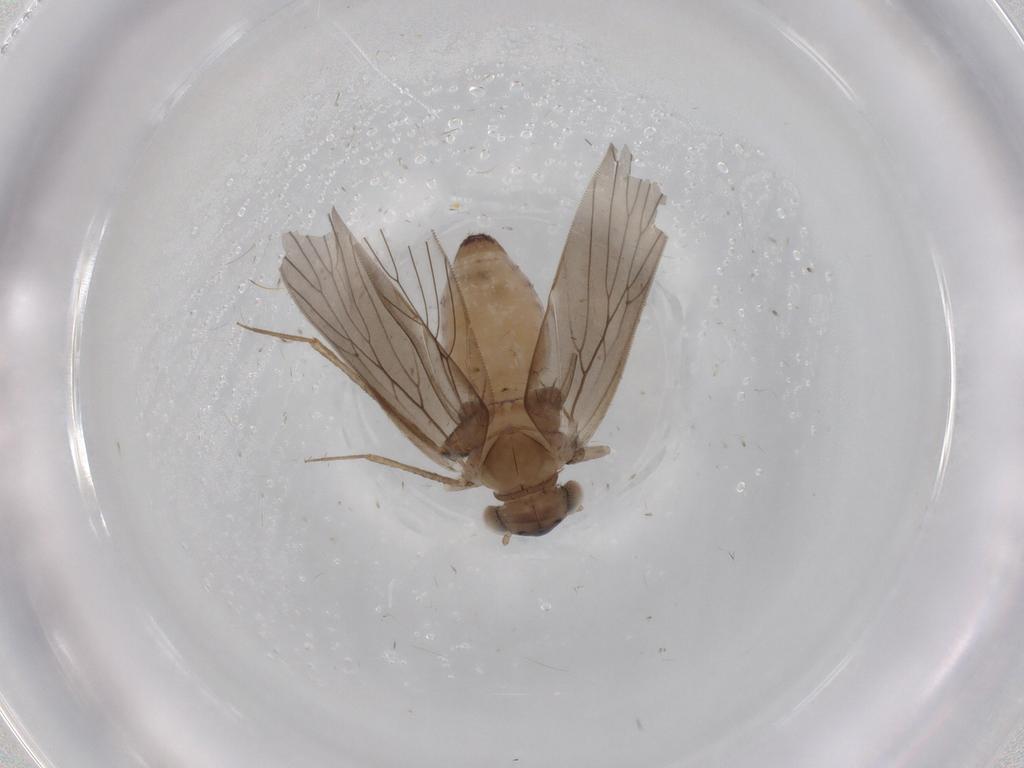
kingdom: Animalia
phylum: Arthropoda
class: Insecta
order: Psocodea
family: Lepidopsocidae
